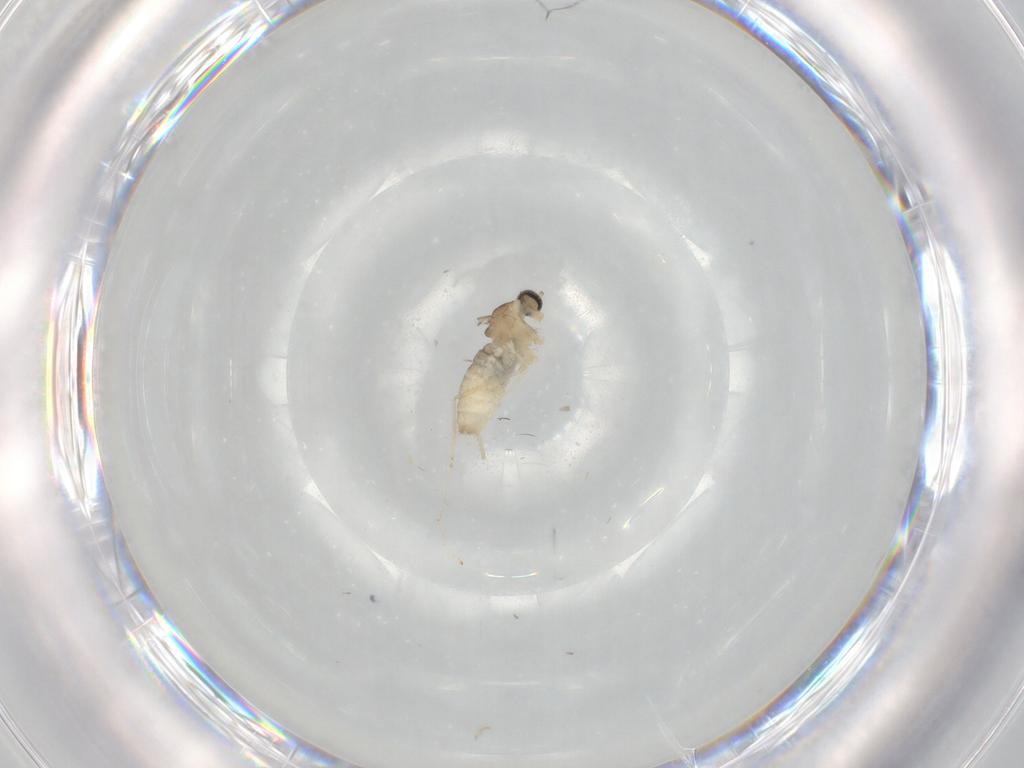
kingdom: Animalia
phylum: Arthropoda
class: Insecta
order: Diptera
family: Cecidomyiidae
